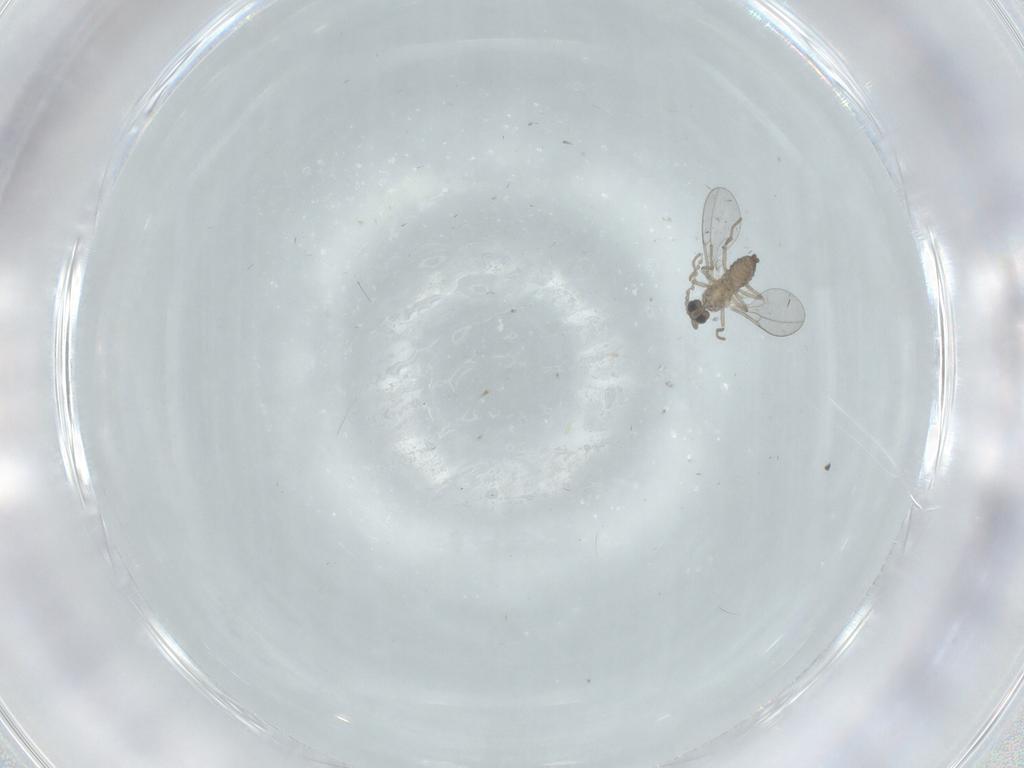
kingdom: Animalia
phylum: Arthropoda
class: Insecta
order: Diptera
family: Cecidomyiidae
